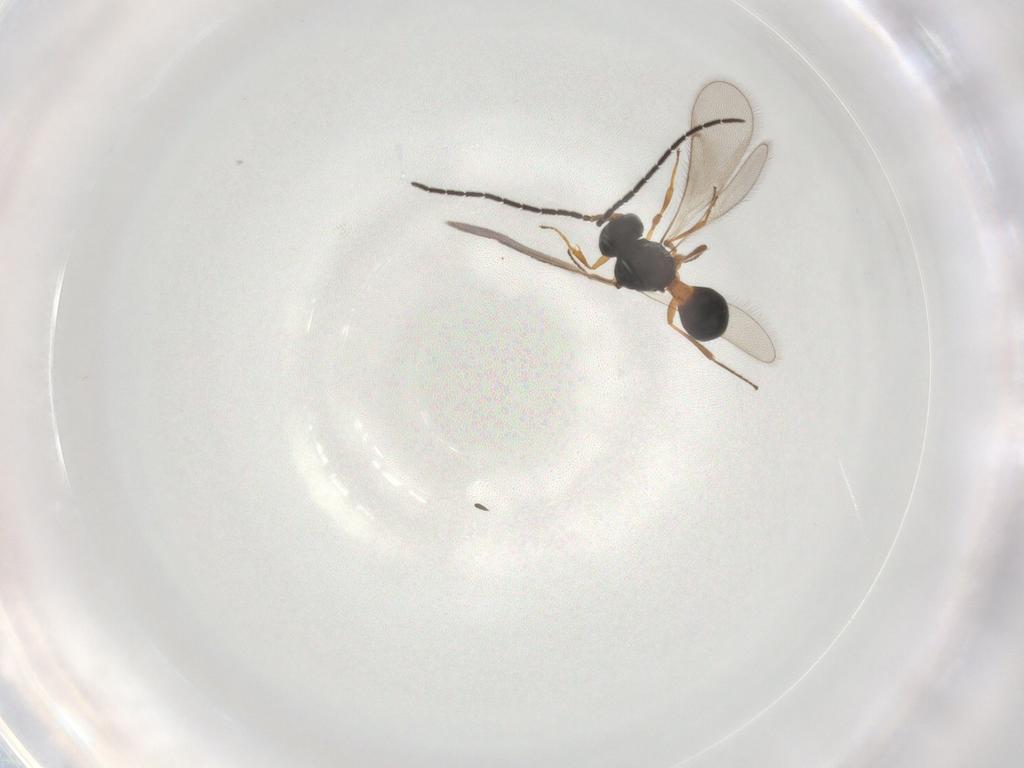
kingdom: Animalia
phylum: Arthropoda
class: Insecta
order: Hymenoptera
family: Scelionidae
